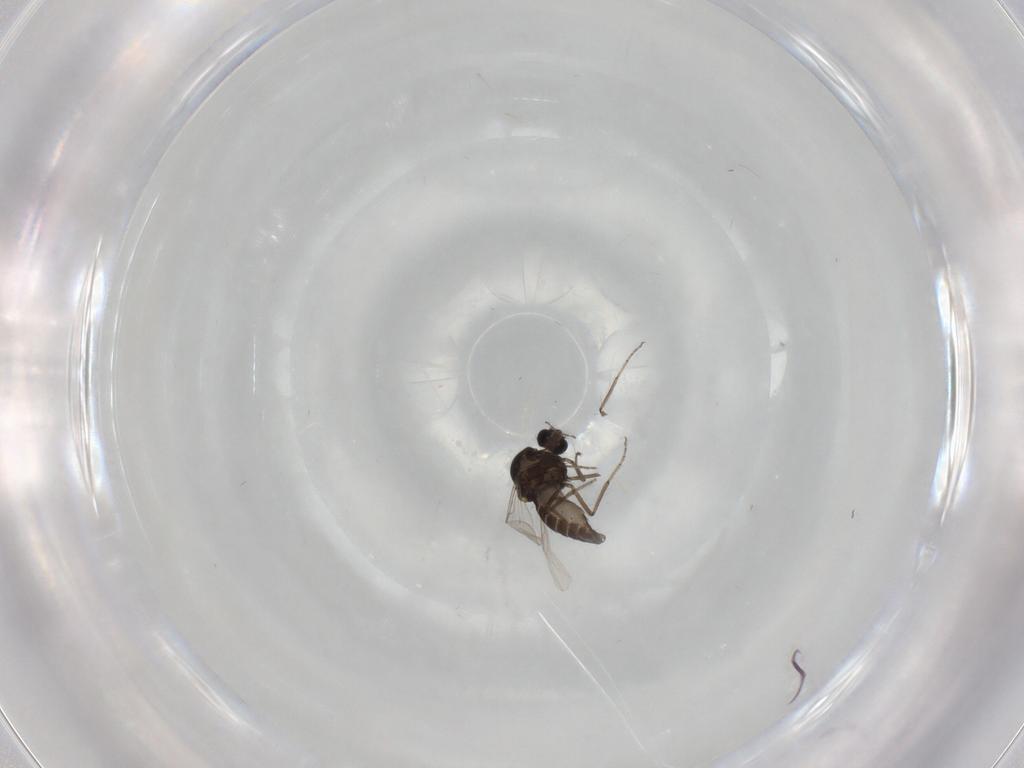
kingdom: Animalia
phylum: Arthropoda
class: Insecta
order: Diptera
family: Ceratopogonidae
